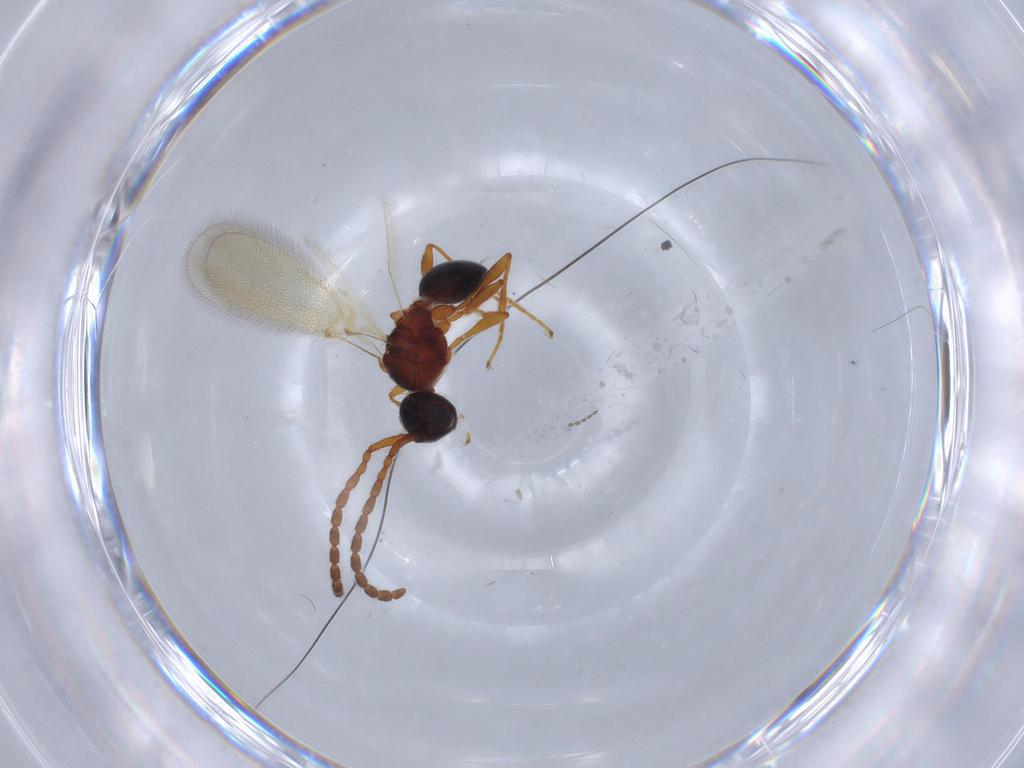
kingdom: Animalia
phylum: Arthropoda
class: Insecta
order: Hymenoptera
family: Diapriidae
